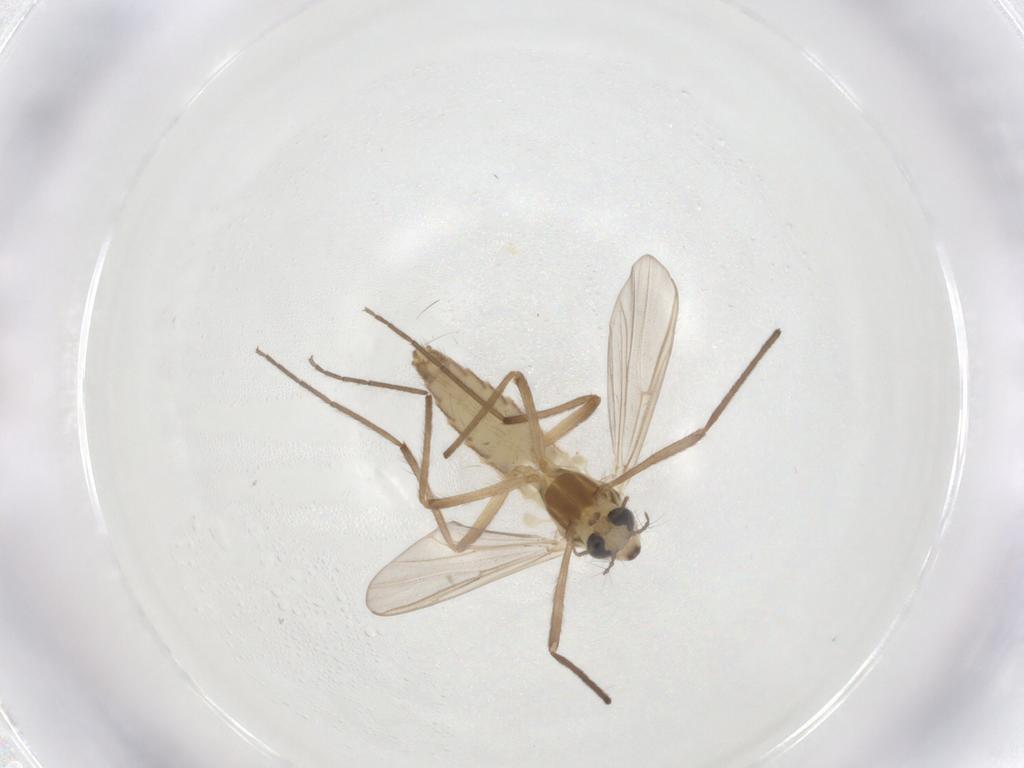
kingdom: Animalia
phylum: Arthropoda
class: Insecta
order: Diptera
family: Chironomidae
